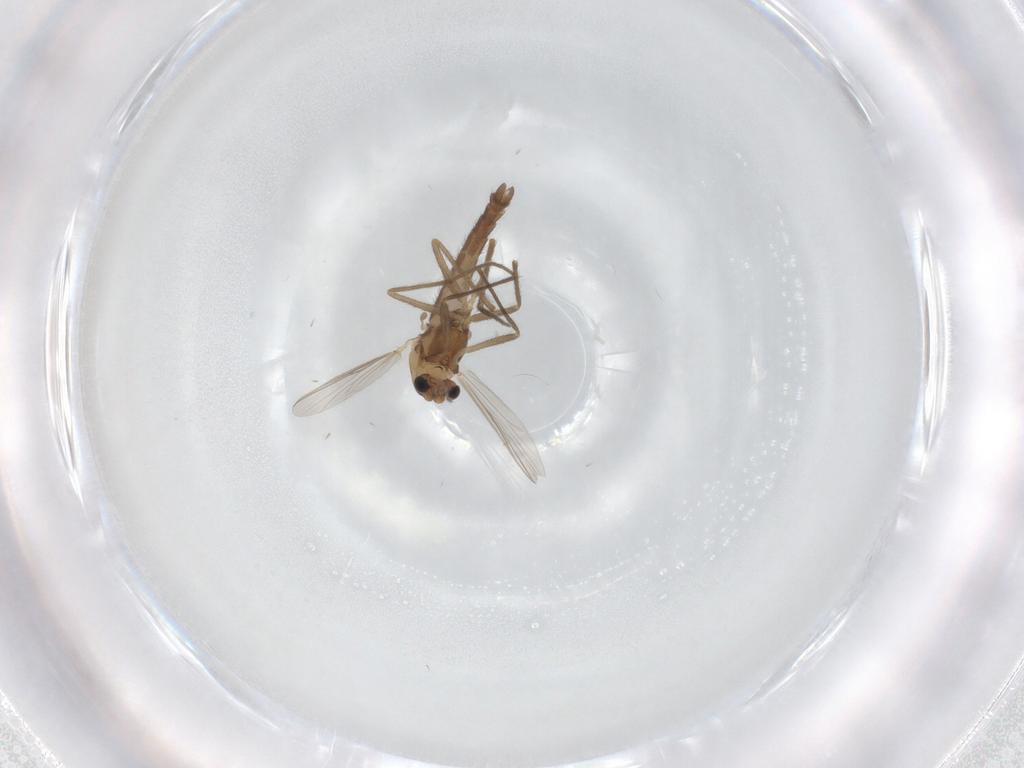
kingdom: Animalia
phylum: Arthropoda
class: Insecta
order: Diptera
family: Chironomidae
